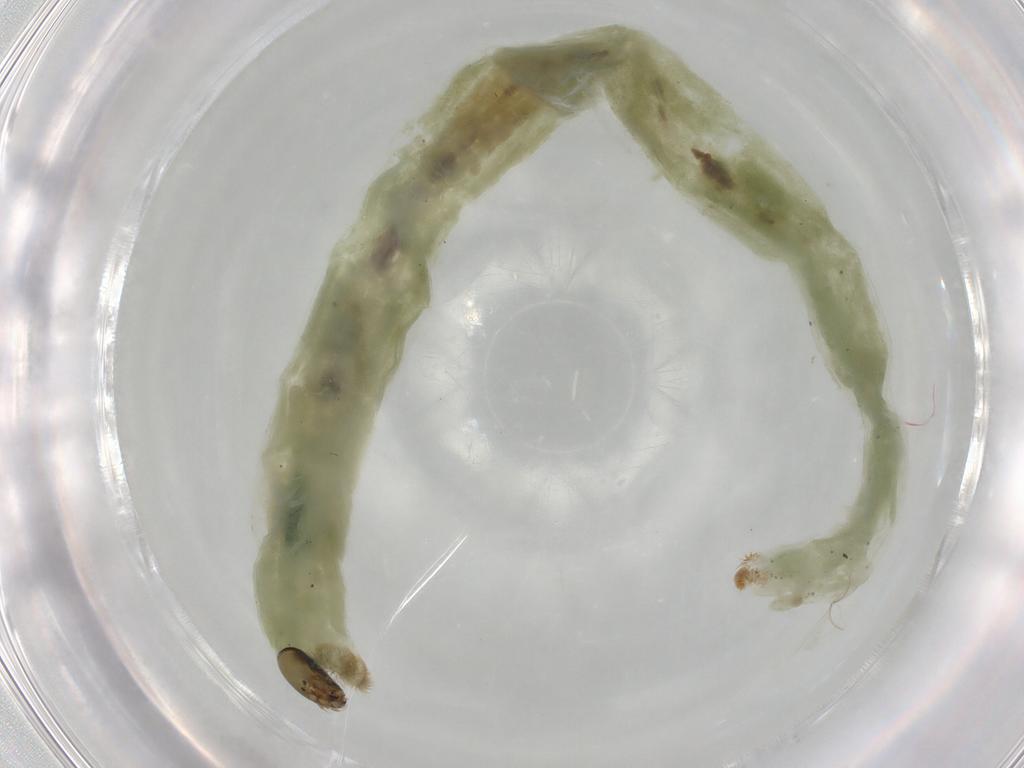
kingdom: Animalia
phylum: Arthropoda
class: Insecta
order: Diptera
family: Chironomidae
